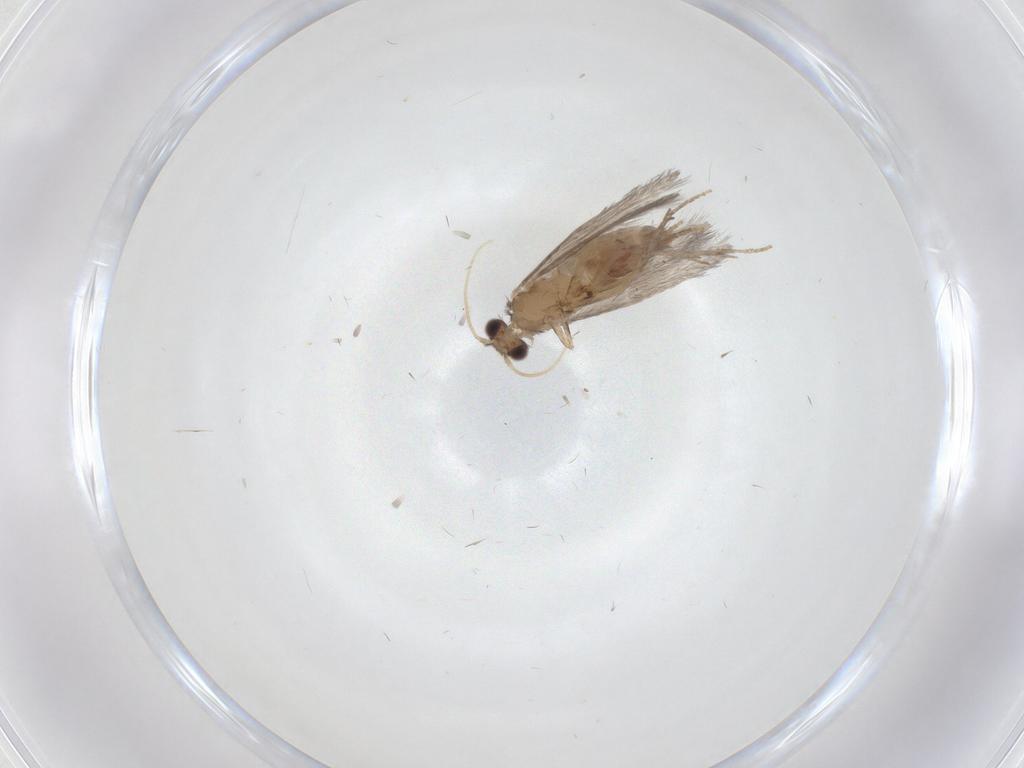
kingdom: Animalia
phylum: Arthropoda
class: Insecta
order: Trichoptera
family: Hydroptilidae
